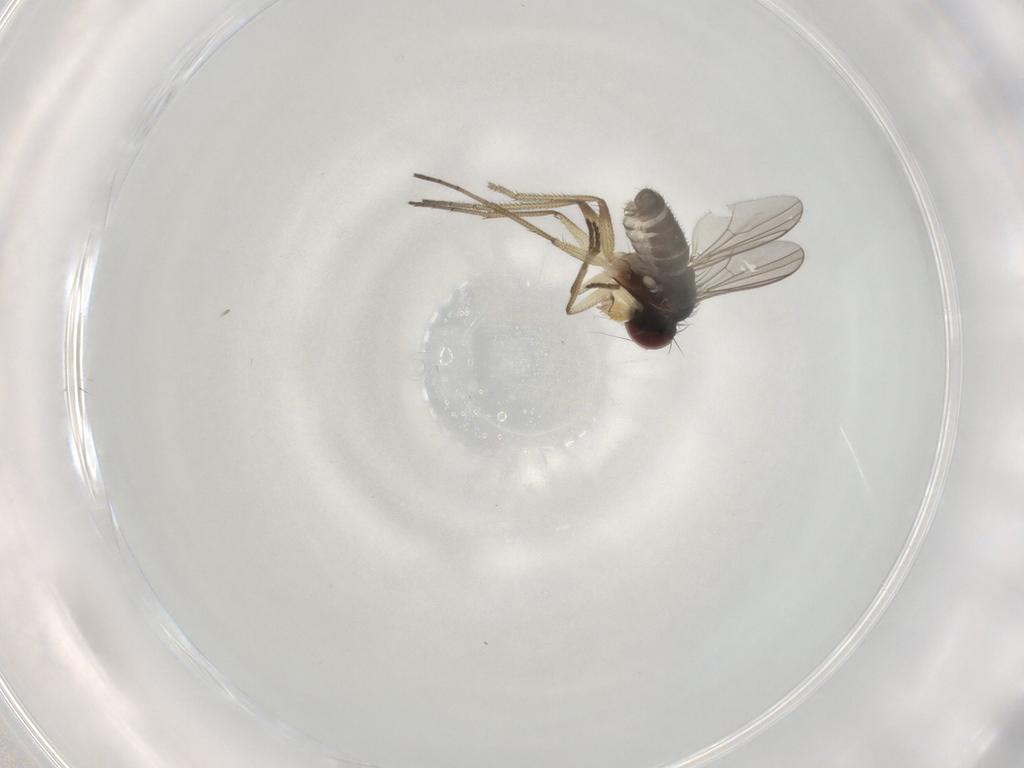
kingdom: Animalia
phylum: Arthropoda
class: Insecta
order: Diptera
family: Dolichopodidae
